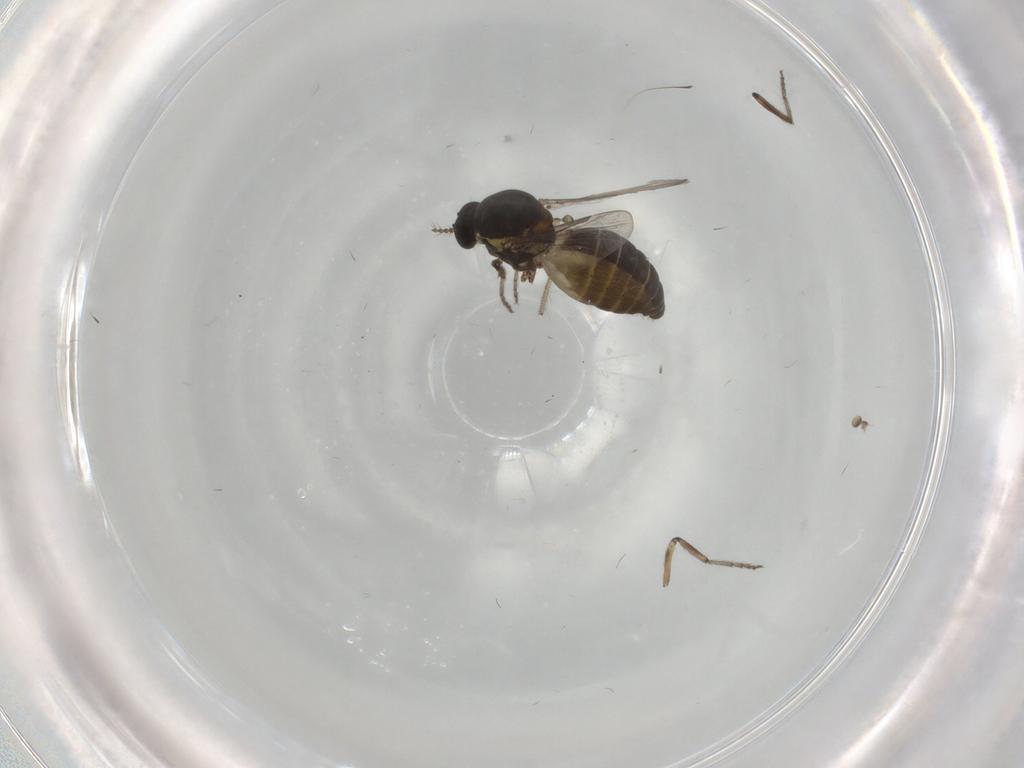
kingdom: Animalia
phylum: Arthropoda
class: Insecta
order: Diptera
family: Ceratopogonidae
